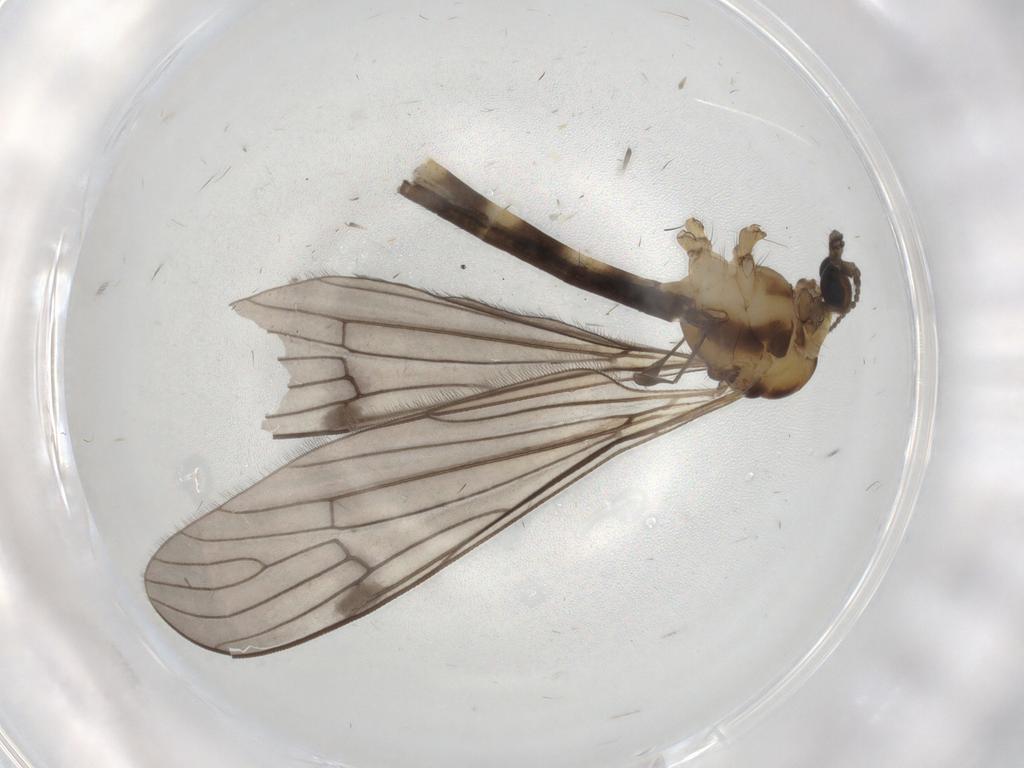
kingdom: Animalia
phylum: Arthropoda
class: Insecta
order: Diptera
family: Limoniidae
